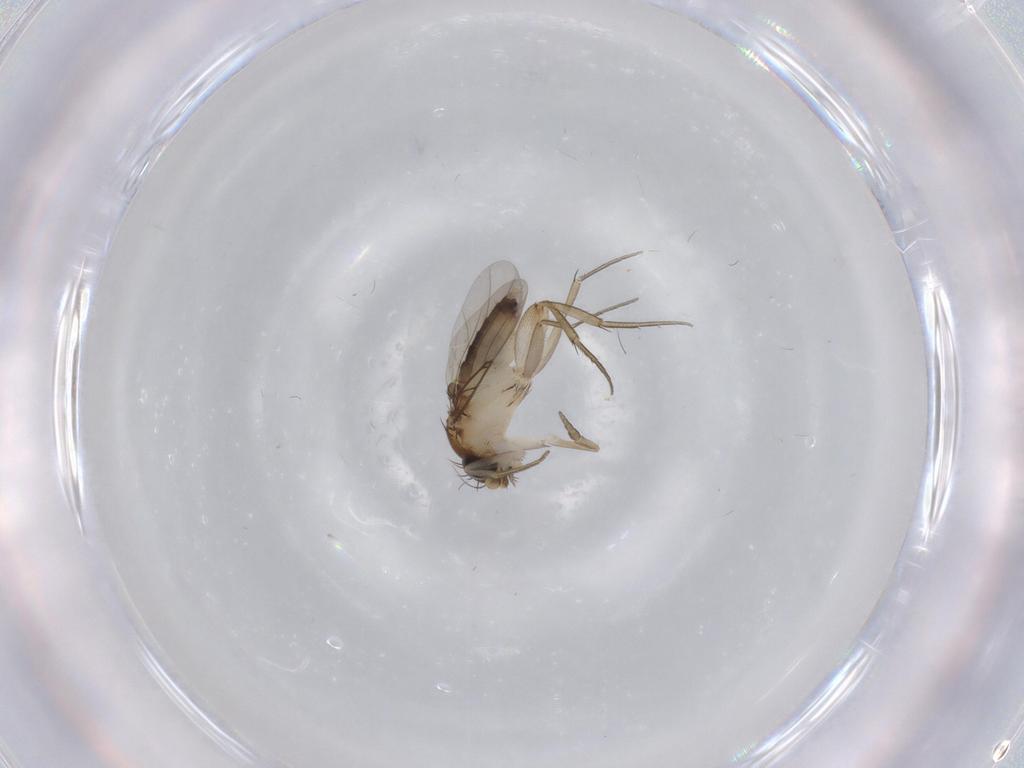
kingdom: Animalia
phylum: Arthropoda
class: Insecta
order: Diptera
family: Phoridae
